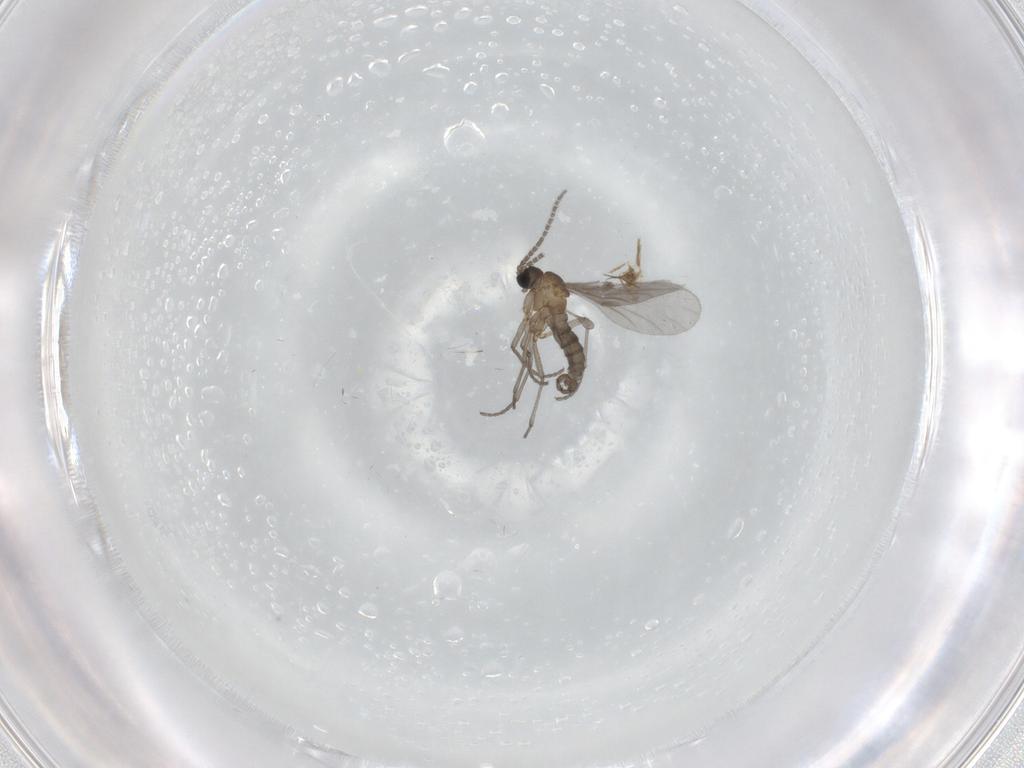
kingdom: Animalia
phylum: Arthropoda
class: Insecta
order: Diptera
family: Sciaridae
